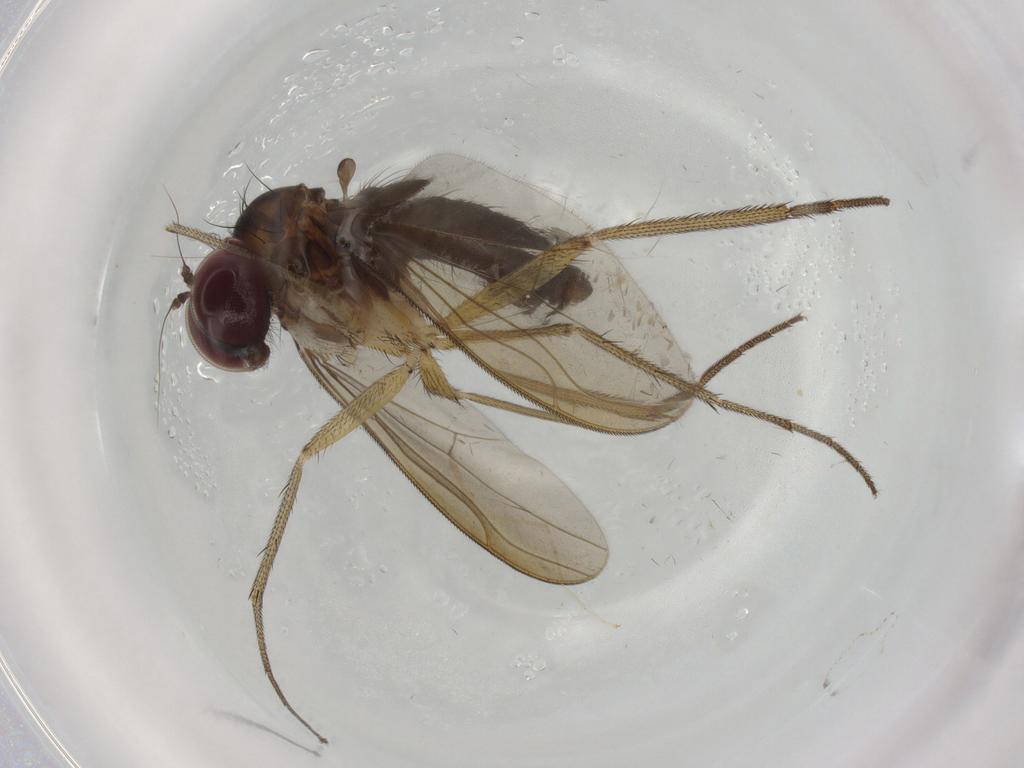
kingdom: Animalia
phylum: Arthropoda
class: Insecta
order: Diptera
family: Dolichopodidae
